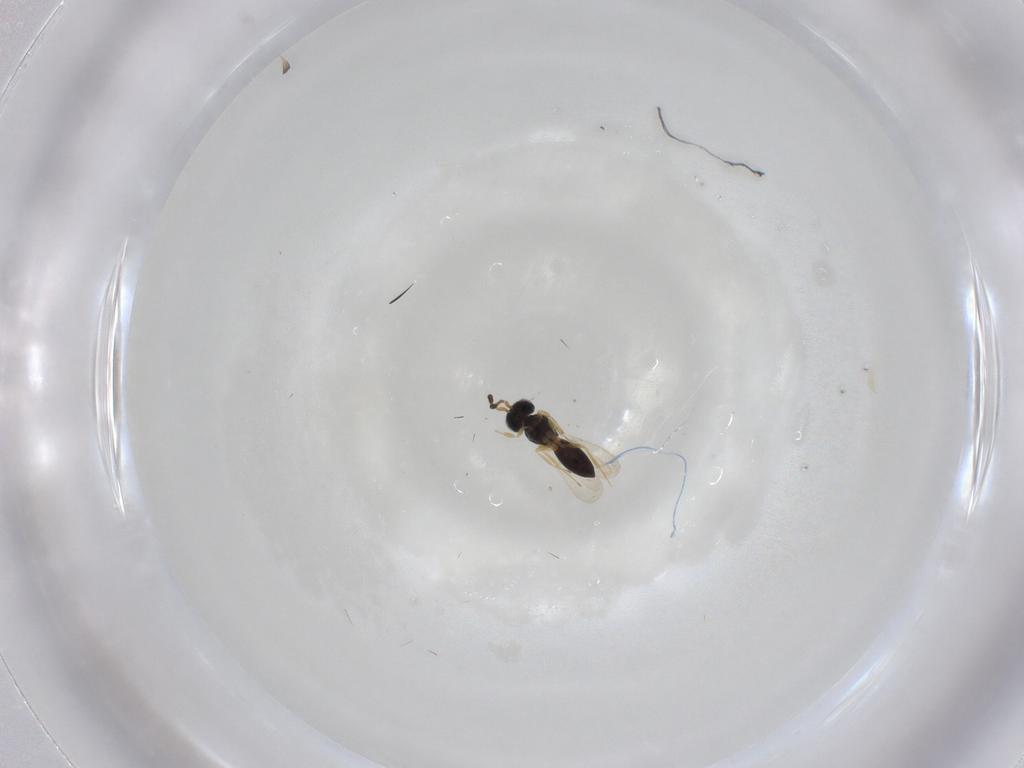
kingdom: Animalia
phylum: Arthropoda
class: Insecta
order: Hymenoptera
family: Scelionidae
